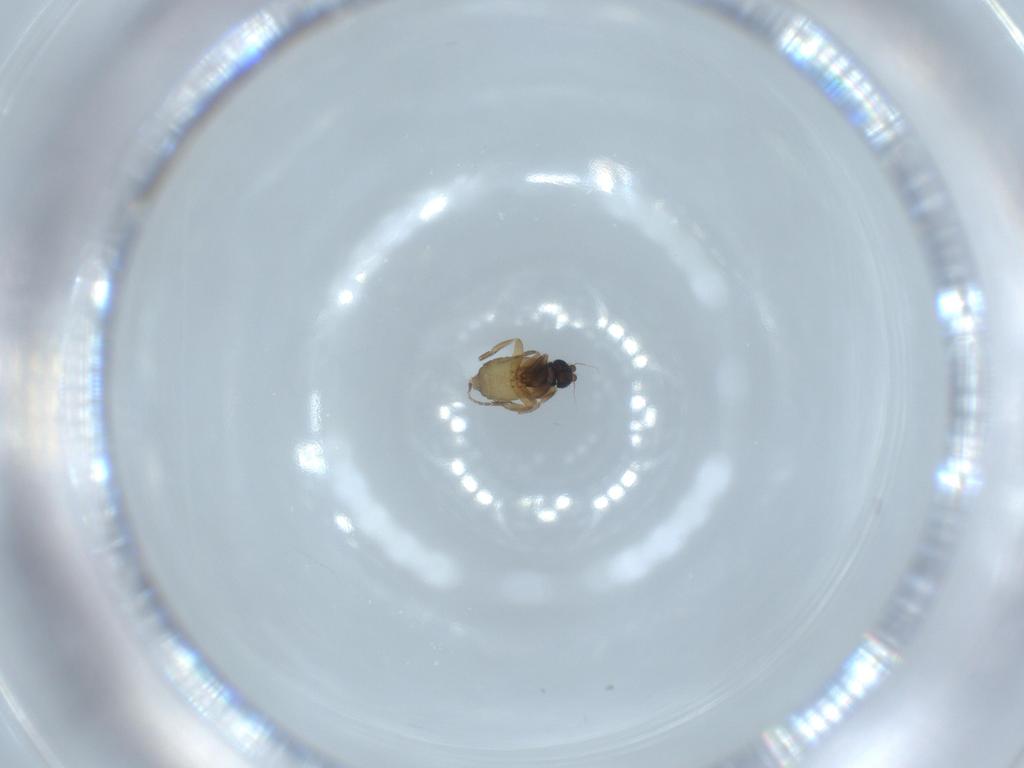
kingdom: Animalia
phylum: Arthropoda
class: Insecta
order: Diptera
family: Phoridae
